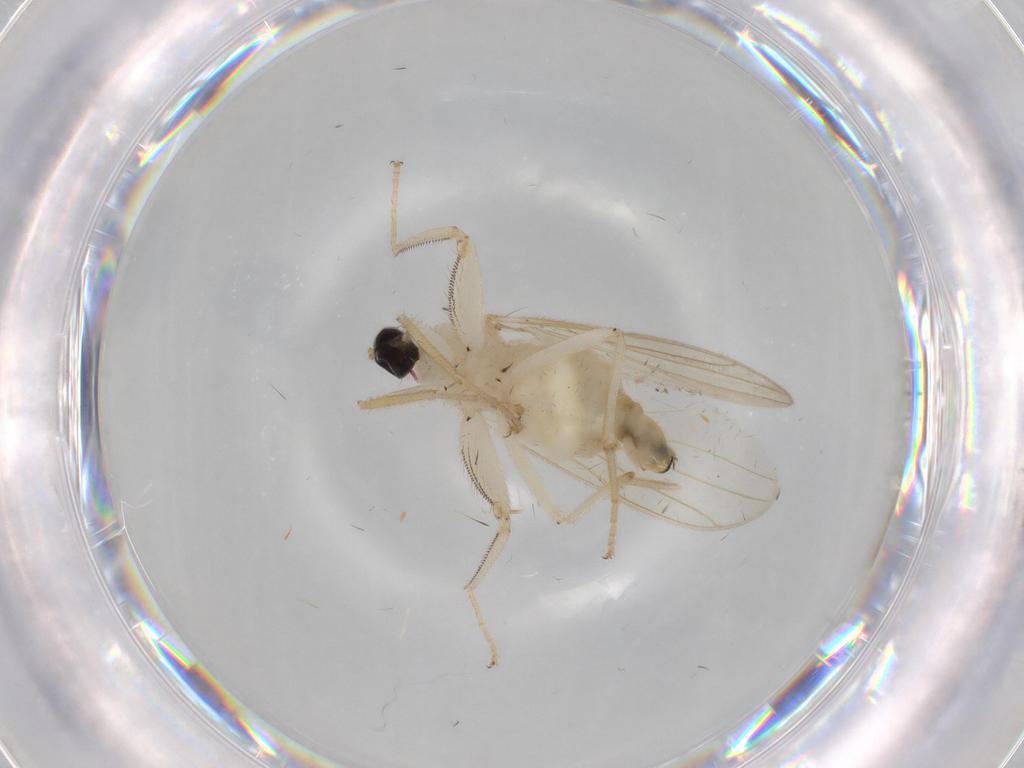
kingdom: Animalia
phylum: Arthropoda
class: Insecta
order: Diptera
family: Hybotidae
